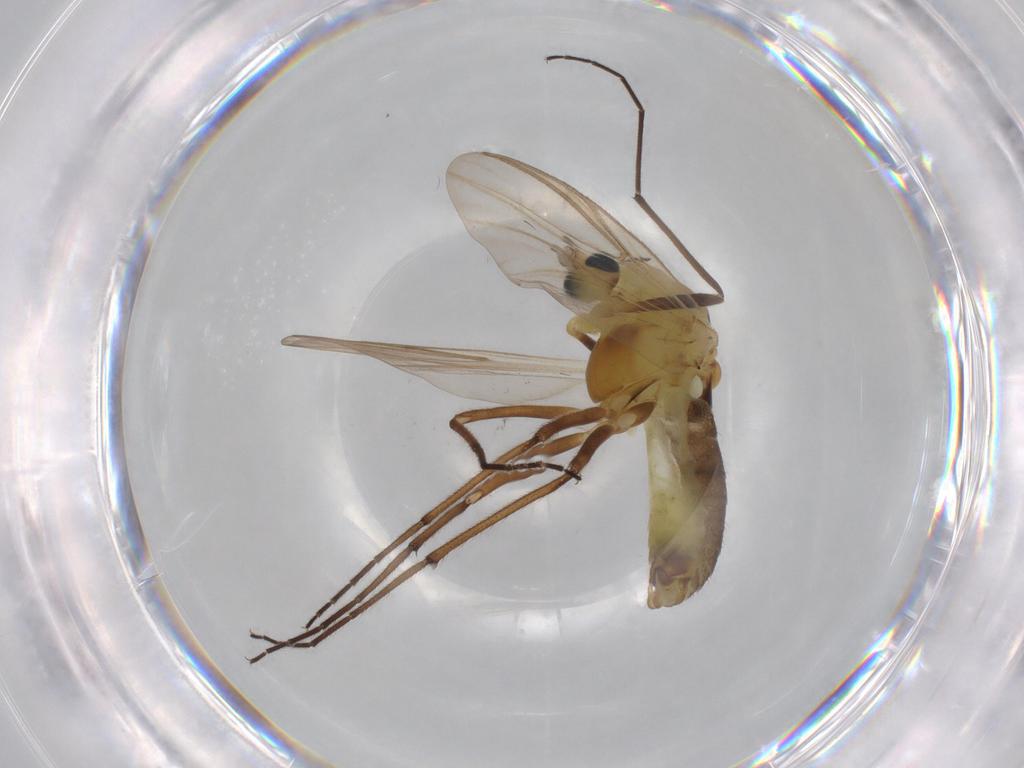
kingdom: Animalia
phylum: Arthropoda
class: Insecta
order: Diptera
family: Psychodidae
